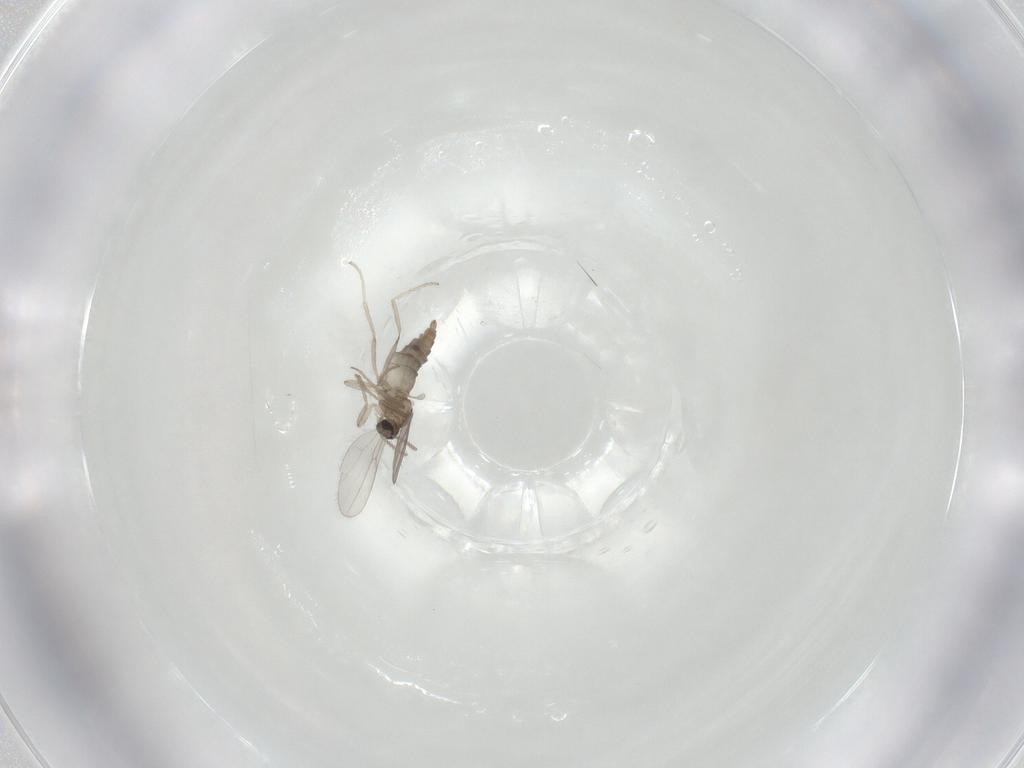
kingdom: Animalia
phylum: Arthropoda
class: Insecta
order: Diptera
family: Cecidomyiidae
